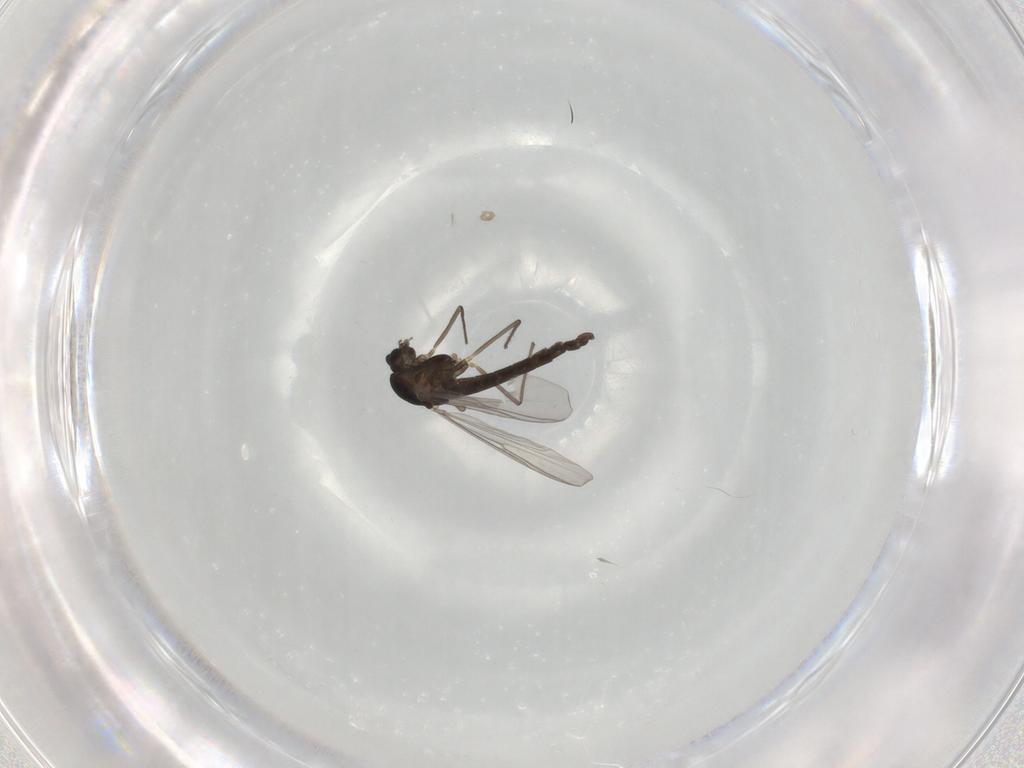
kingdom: Animalia
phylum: Arthropoda
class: Insecta
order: Diptera
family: Chironomidae
